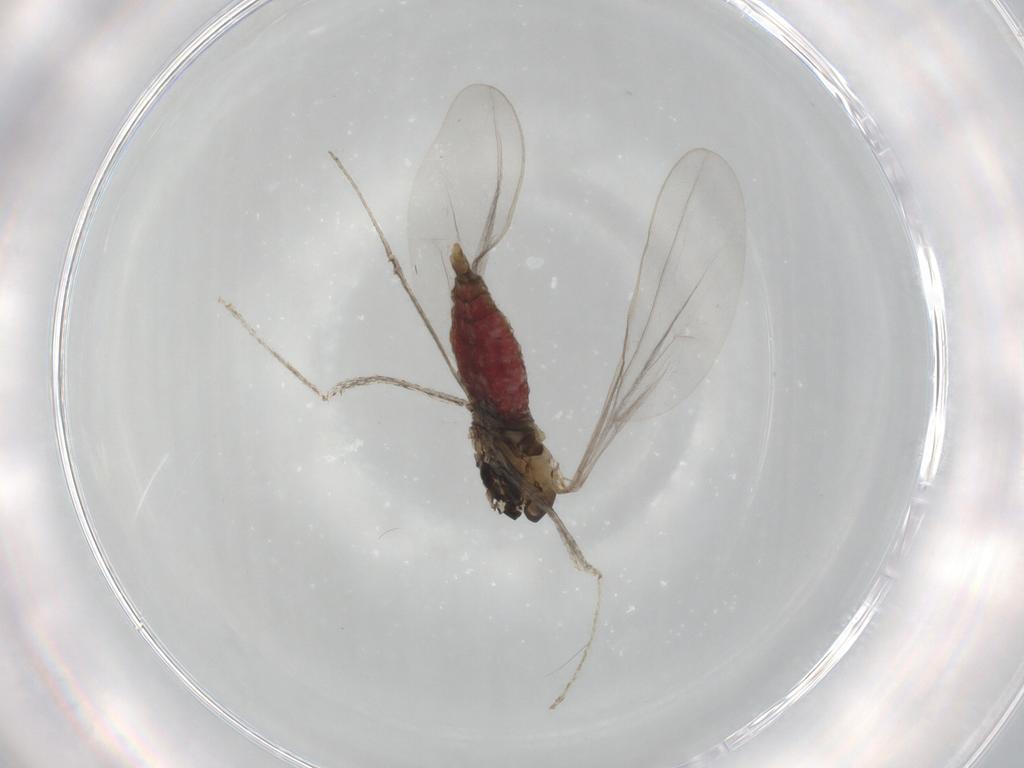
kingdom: Animalia
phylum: Arthropoda
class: Insecta
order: Diptera
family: Cecidomyiidae
